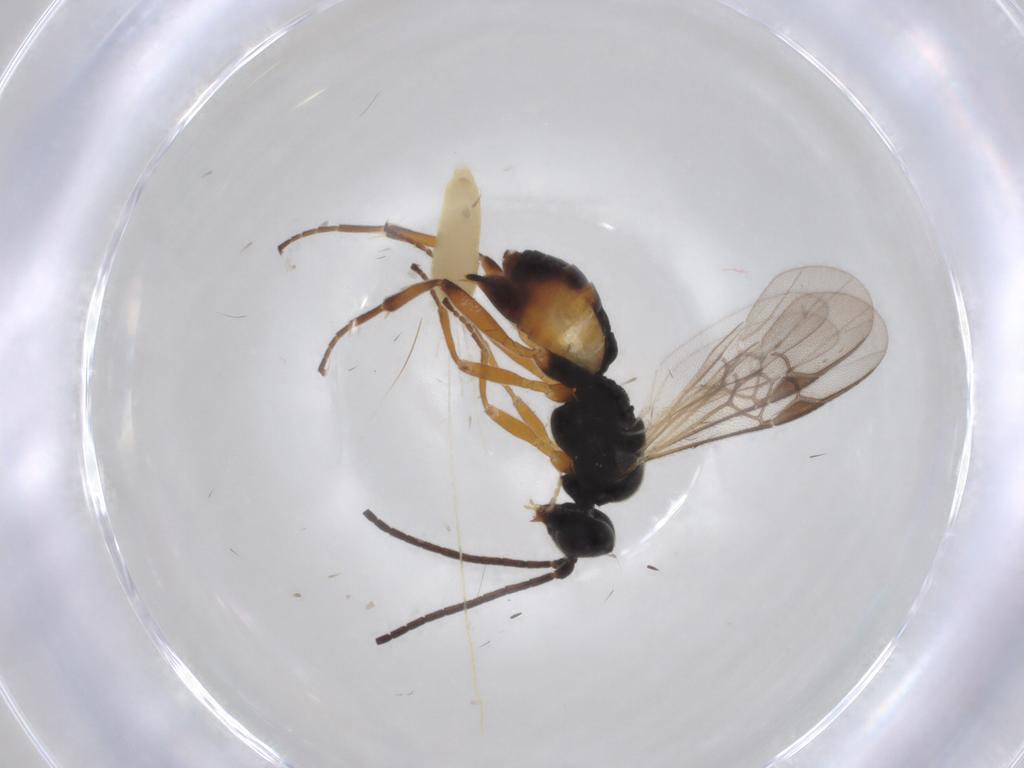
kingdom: Animalia
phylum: Arthropoda
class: Insecta
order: Hymenoptera
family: Braconidae
